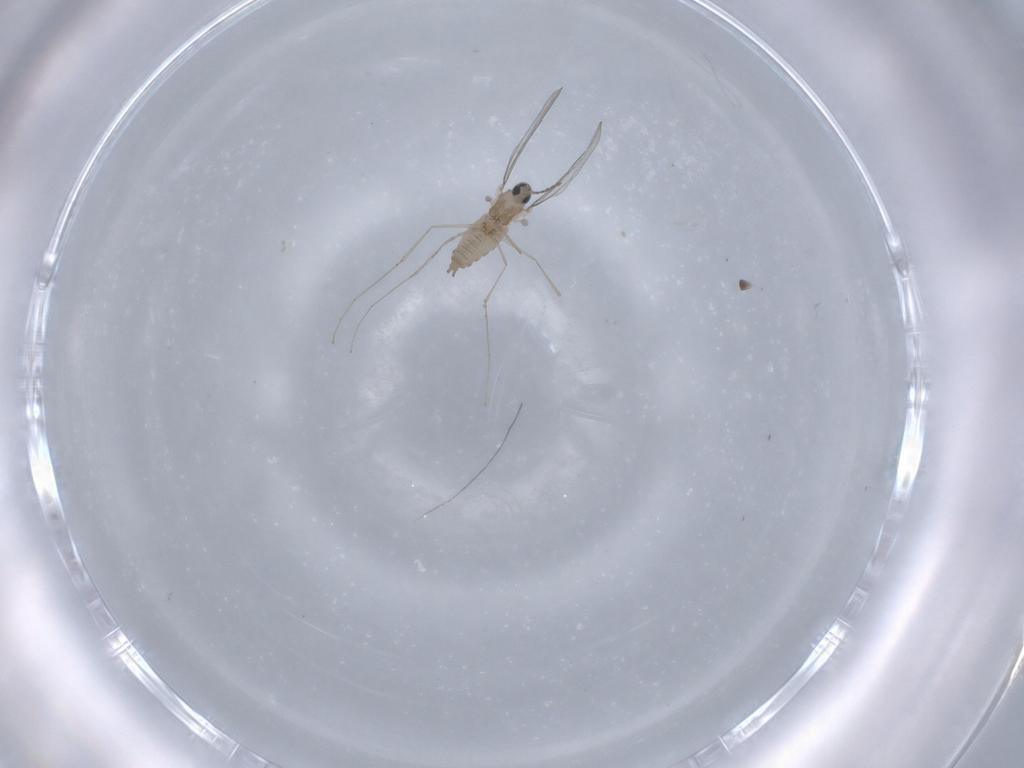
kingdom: Animalia
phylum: Arthropoda
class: Insecta
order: Diptera
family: Cecidomyiidae
